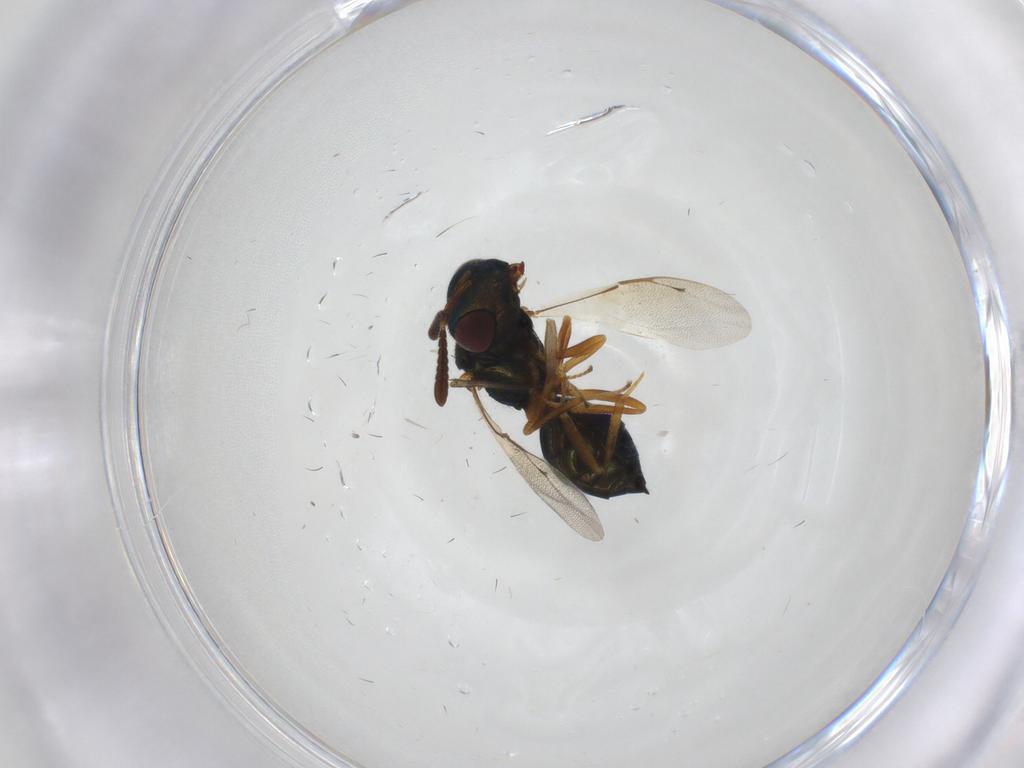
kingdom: Animalia
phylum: Arthropoda
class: Insecta
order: Hymenoptera
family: Pteromalidae
